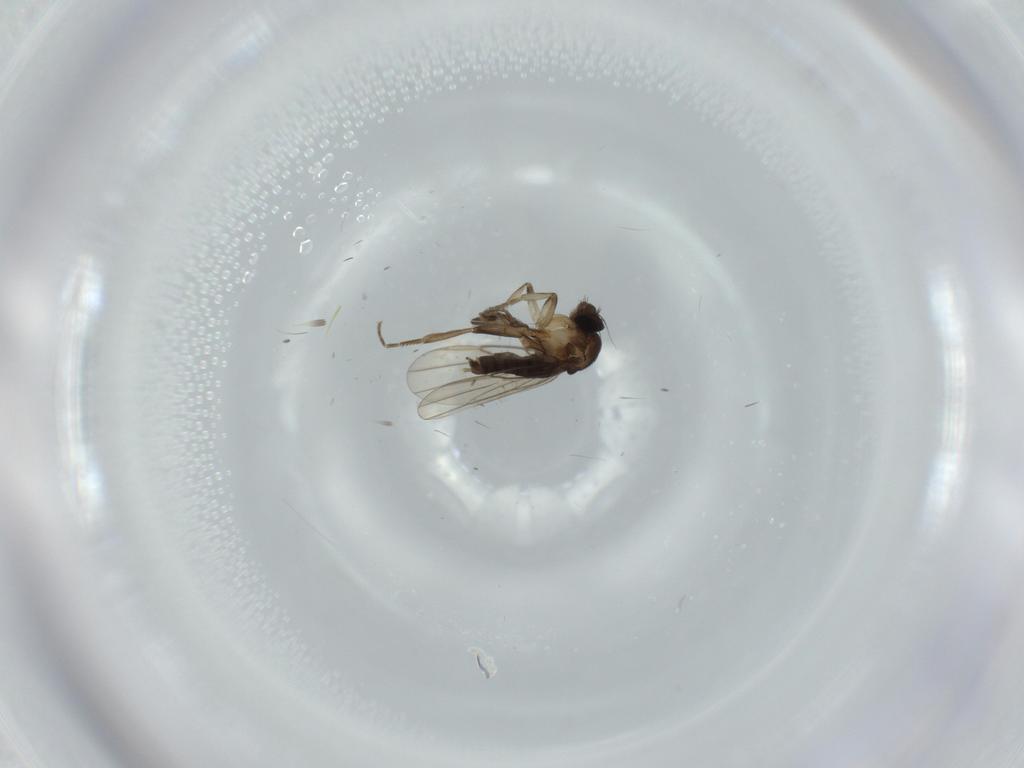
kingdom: Animalia
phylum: Arthropoda
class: Insecta
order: Diptera
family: Phoridae
